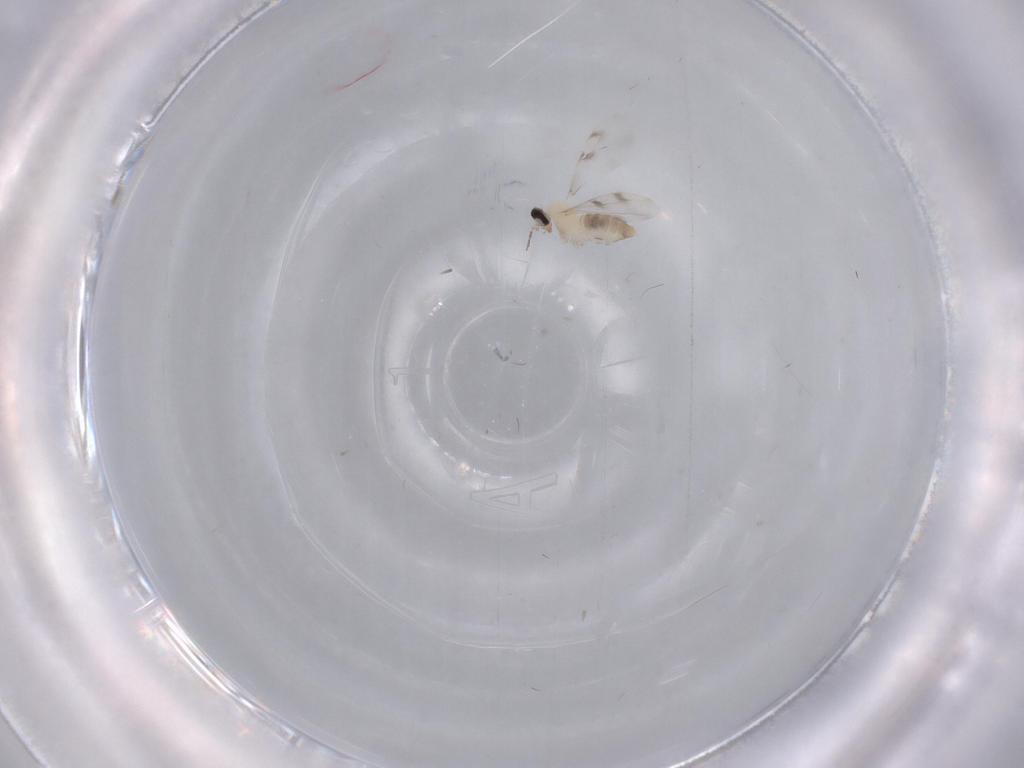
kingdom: Animalia
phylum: Arthropoda
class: Insecta
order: Diptera
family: Cecidomyiidae
